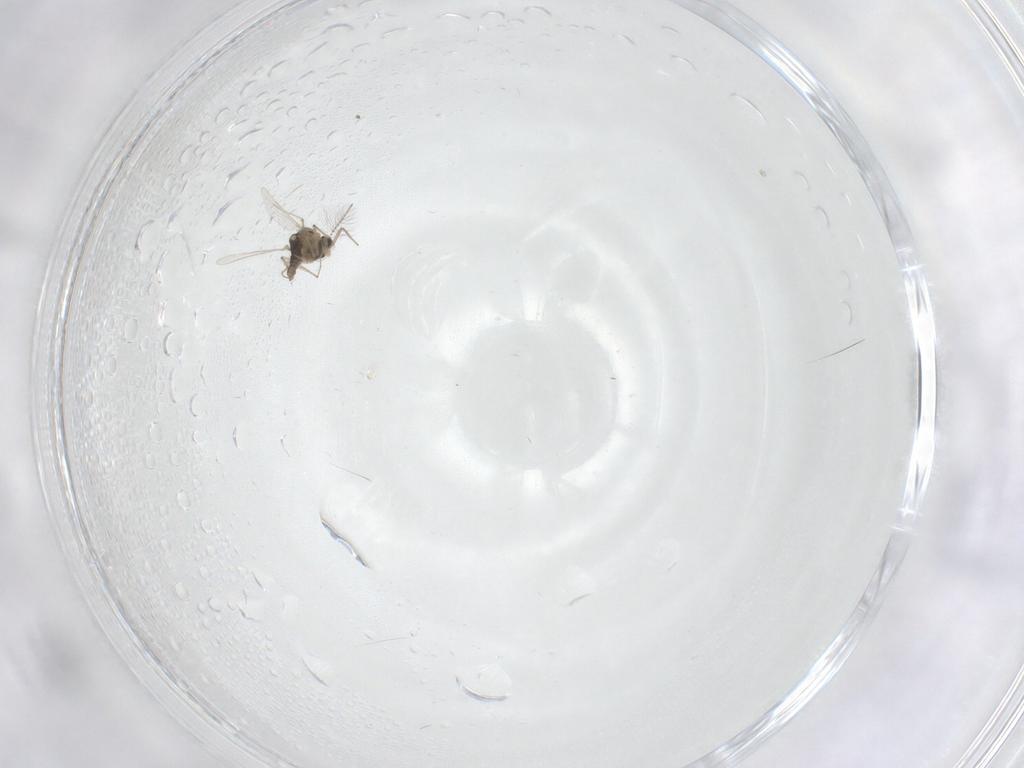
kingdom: Animalia
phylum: Arthropoda
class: Insecta
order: Diptera
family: Chironomidae
